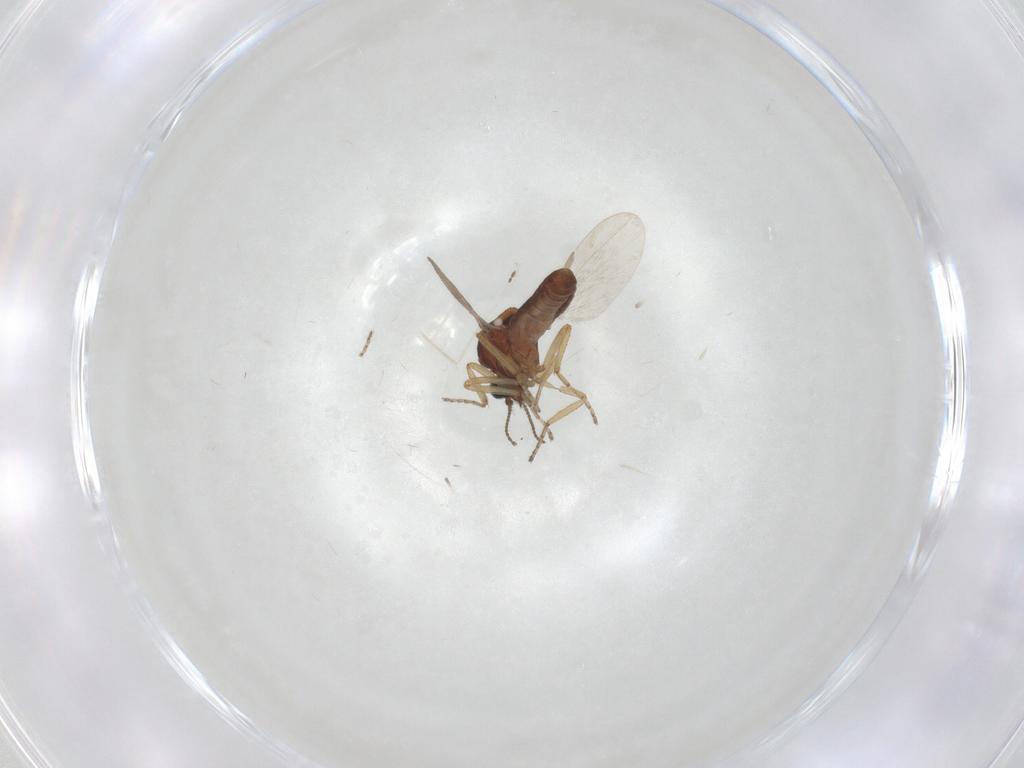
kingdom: Animalia
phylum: Arthropoda
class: Insecta
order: Diptera
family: Ceratopogonidae
